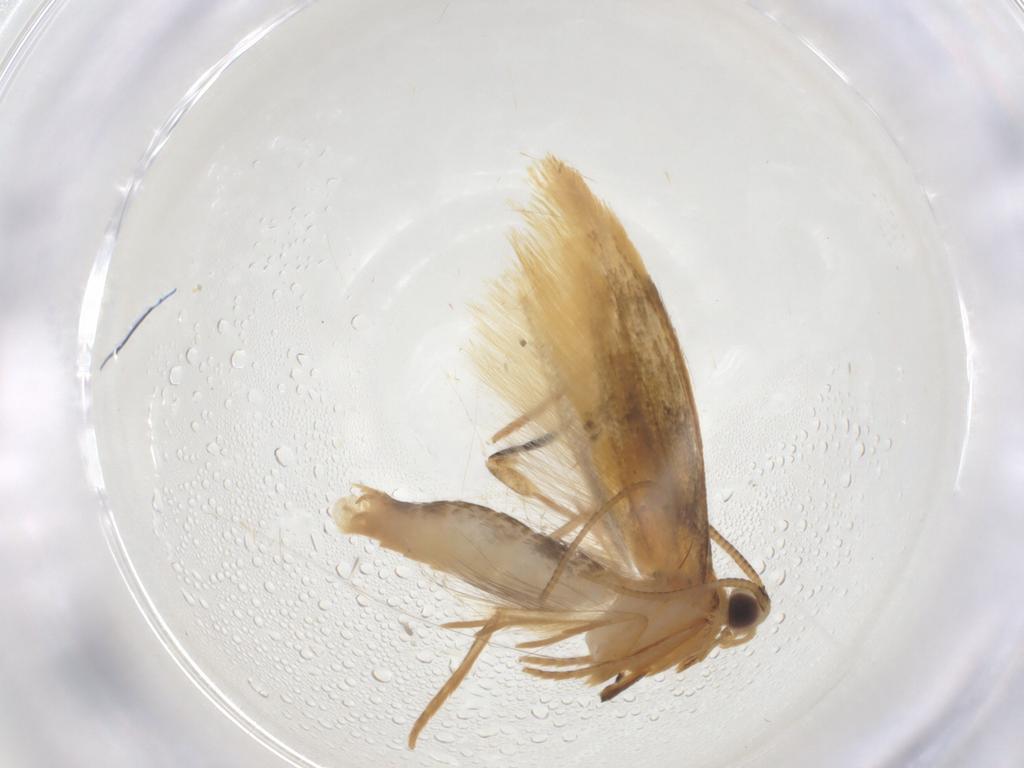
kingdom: Animalia
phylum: Arthropoda
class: Insecta
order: Lepidoptera
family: Nepticulidae
